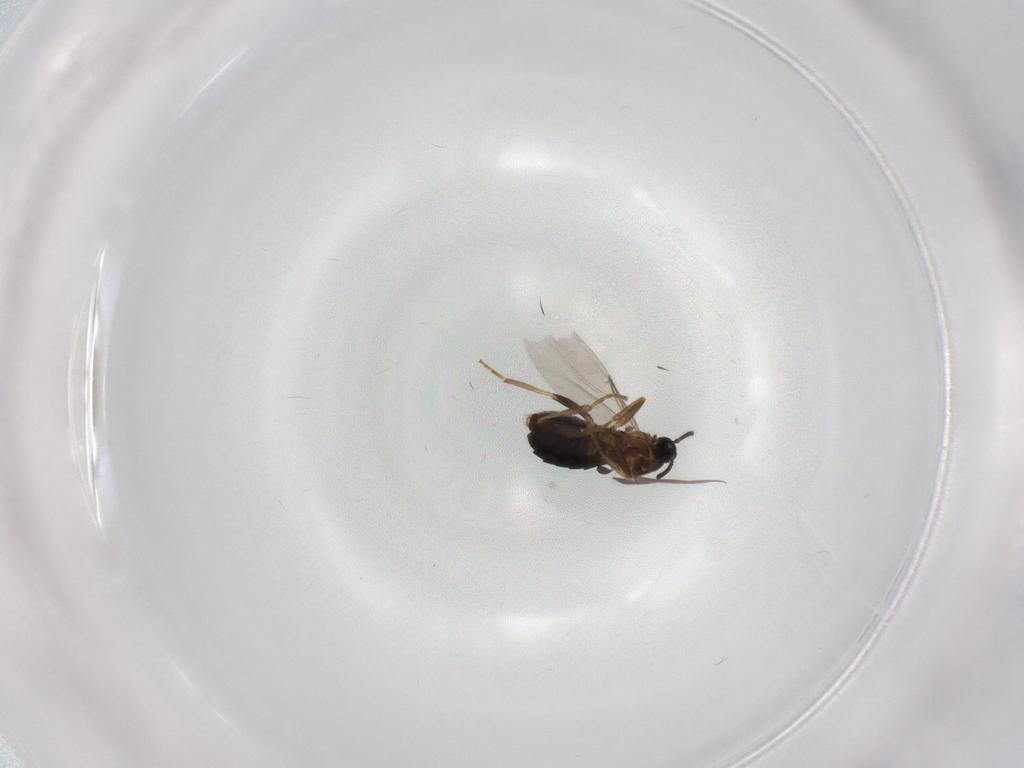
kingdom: Animalia
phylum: Arthropoda
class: Insecta
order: Diptera
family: Scatopsidae
